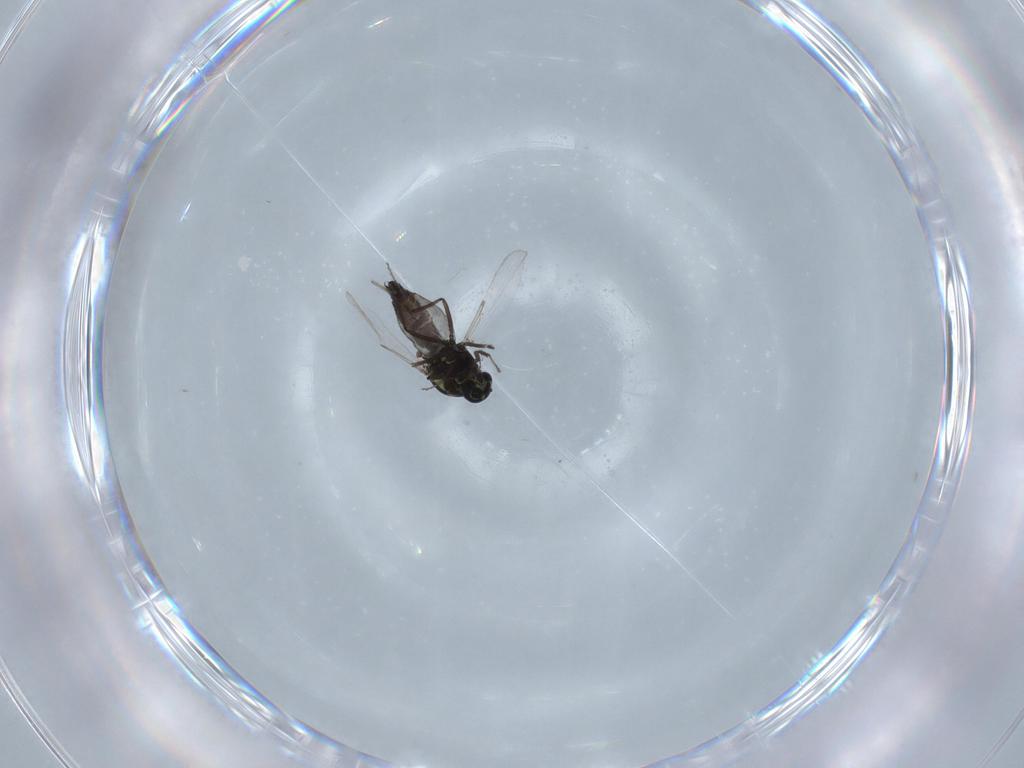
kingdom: Animalia
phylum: Arthropoda
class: Insecta
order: Diptera
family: Ceratopogonidae
